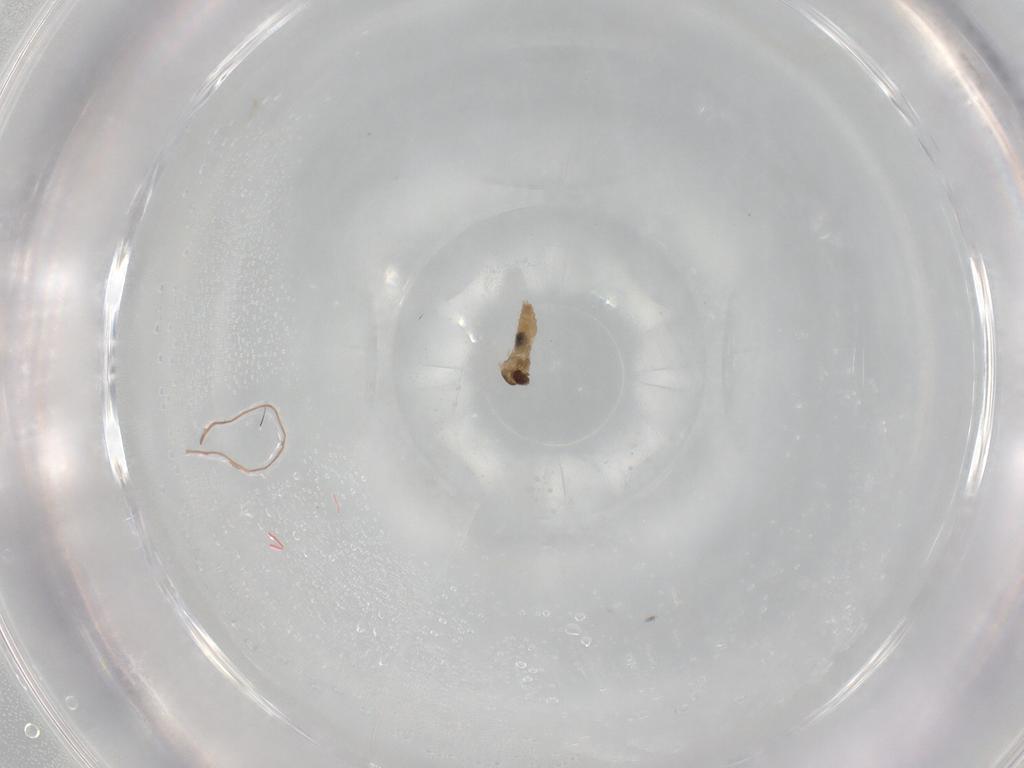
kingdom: Animalia
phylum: Arthropoda
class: Insecta
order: Diptera
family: Cecidomyiidae
